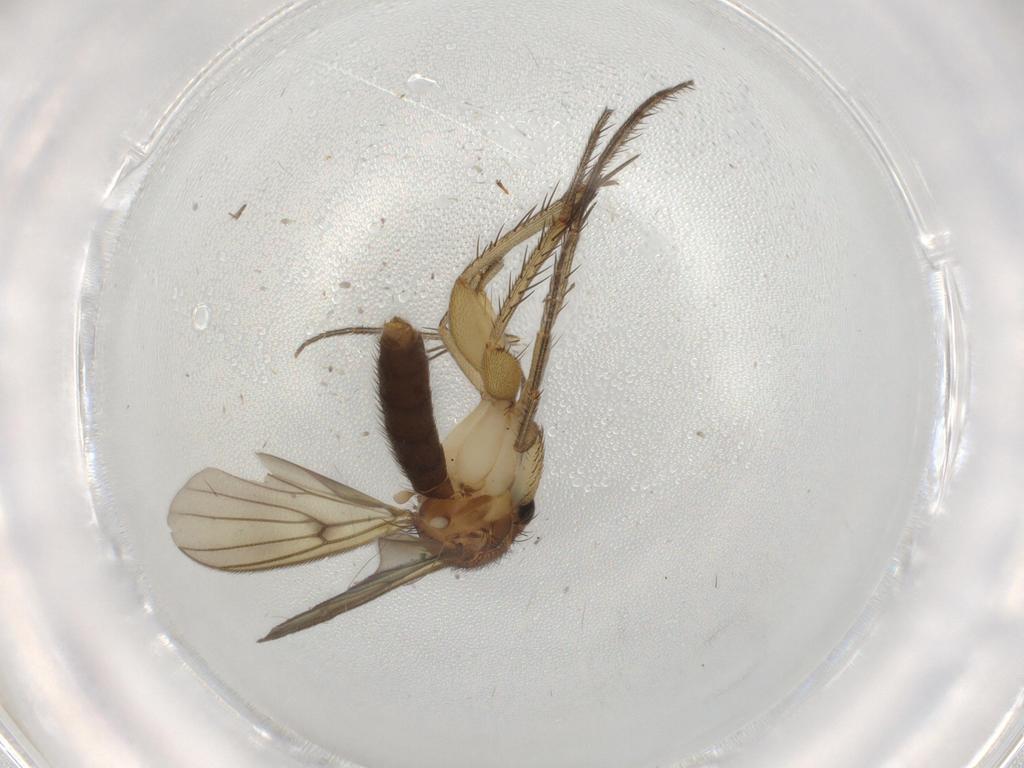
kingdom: Animalia
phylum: Arthropoda
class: Insecta
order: Diptera
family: Cecidomyiidae
